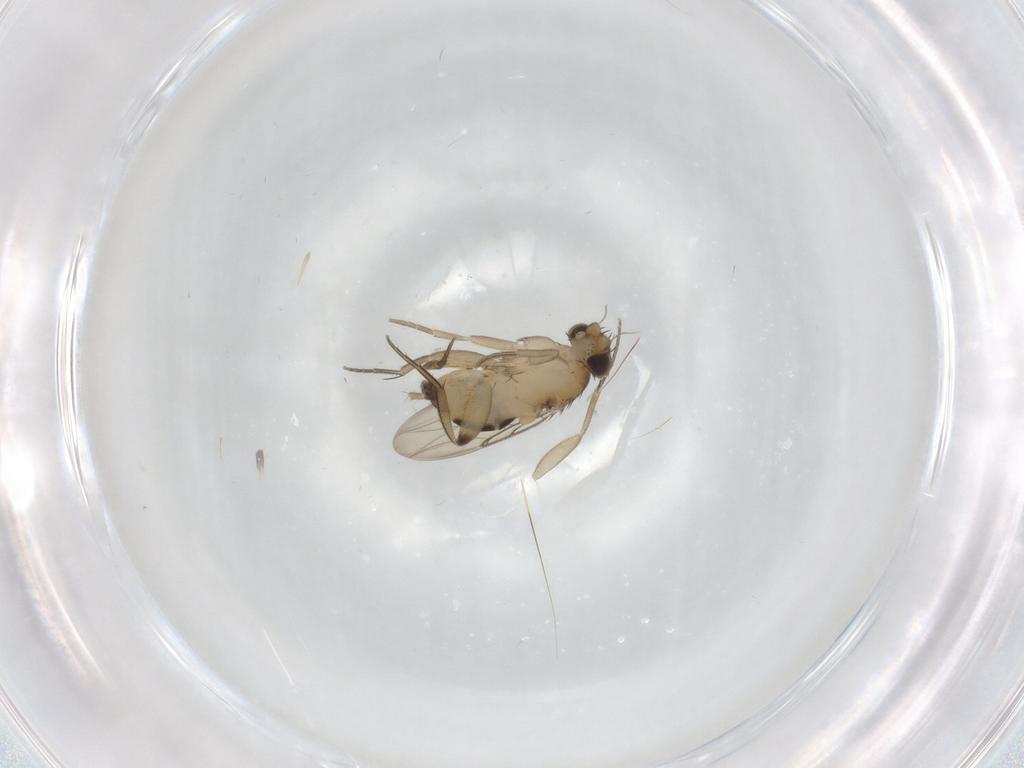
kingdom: Animalia
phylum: Arthropoda
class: Insecta
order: Diptera
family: Phoridae
